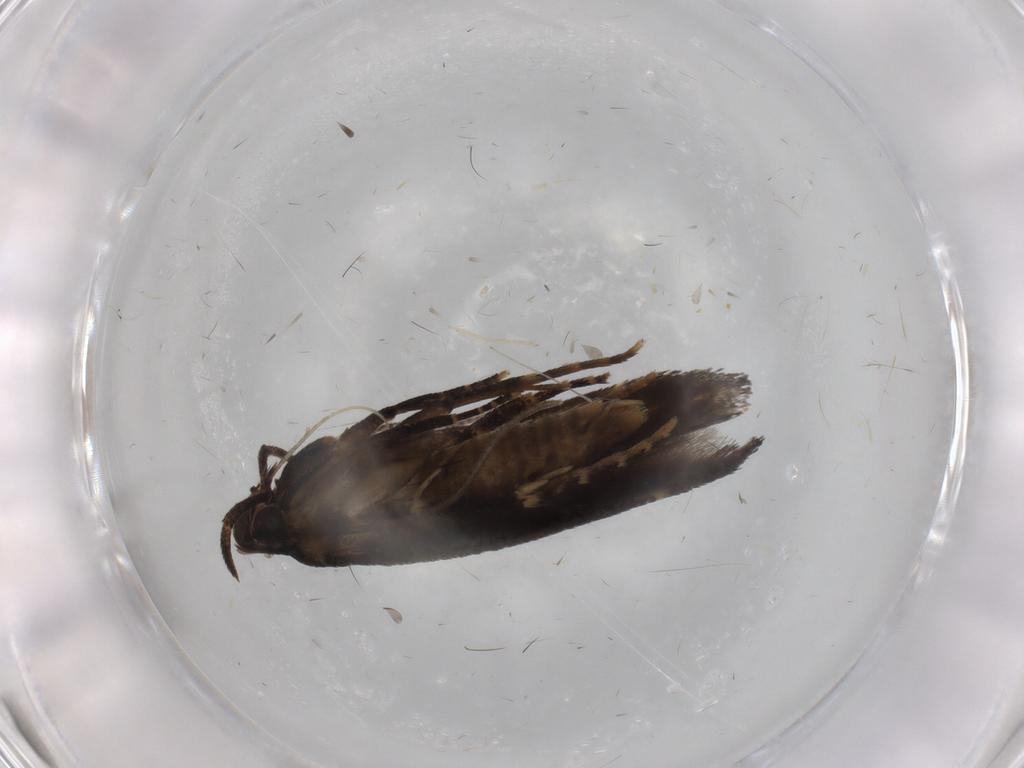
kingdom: Animalia
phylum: Arthropoda
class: Insecta
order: Lepidoptera
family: Cosmopterigidae
